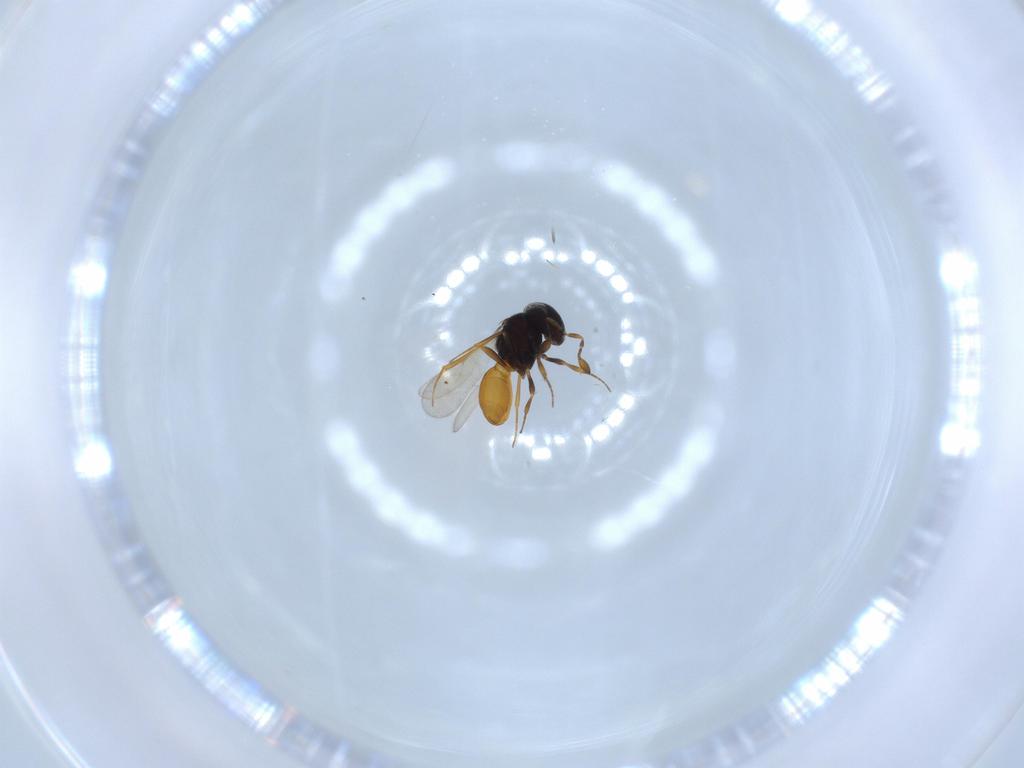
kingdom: Animalia
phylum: Arthropoda
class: Insecta
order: Hymenoptera
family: Scelionidae
